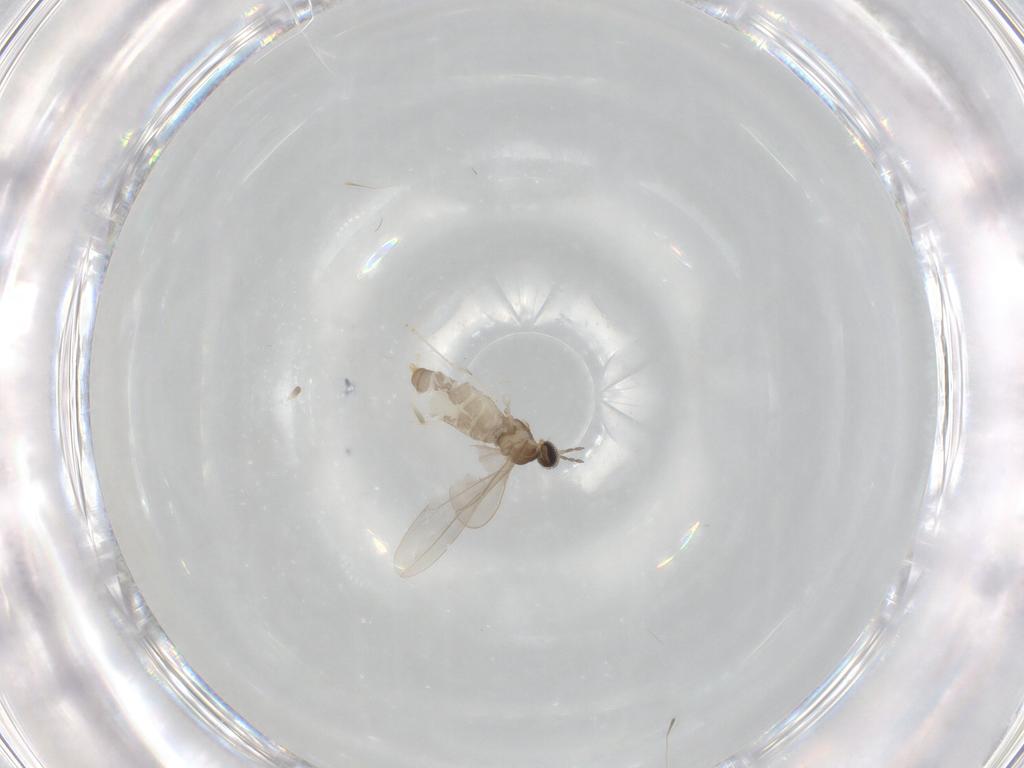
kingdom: Animalia
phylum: Arthropoda
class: Insecta
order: Diptera
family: Cecidomyiidae
